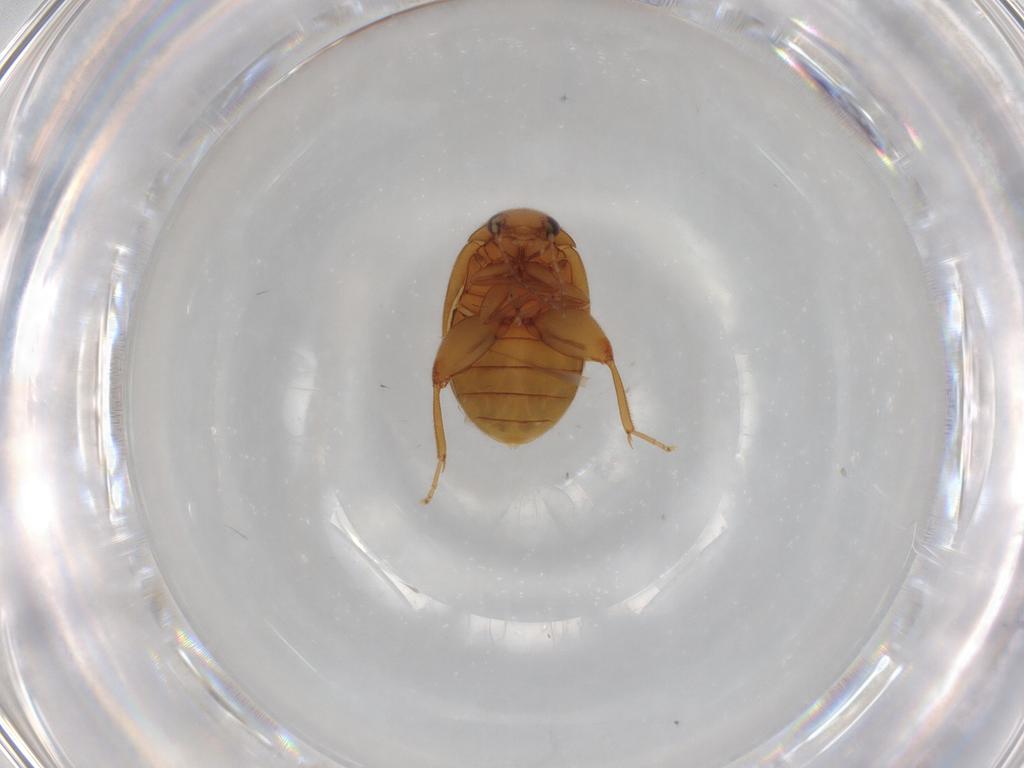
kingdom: Animalia
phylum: Arthropoda
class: Insecta
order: Coleoptera
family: Scirtidae
